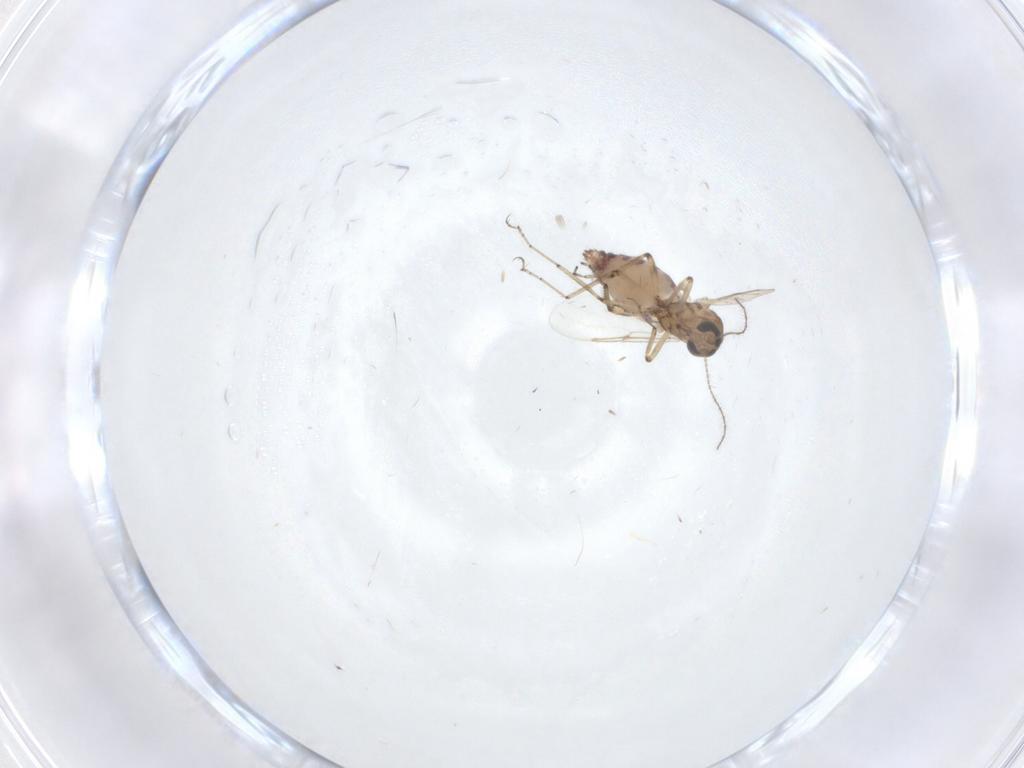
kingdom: Animalia
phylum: Arthropoda
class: Insecta
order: Diptera
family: Ceratopogonidae
